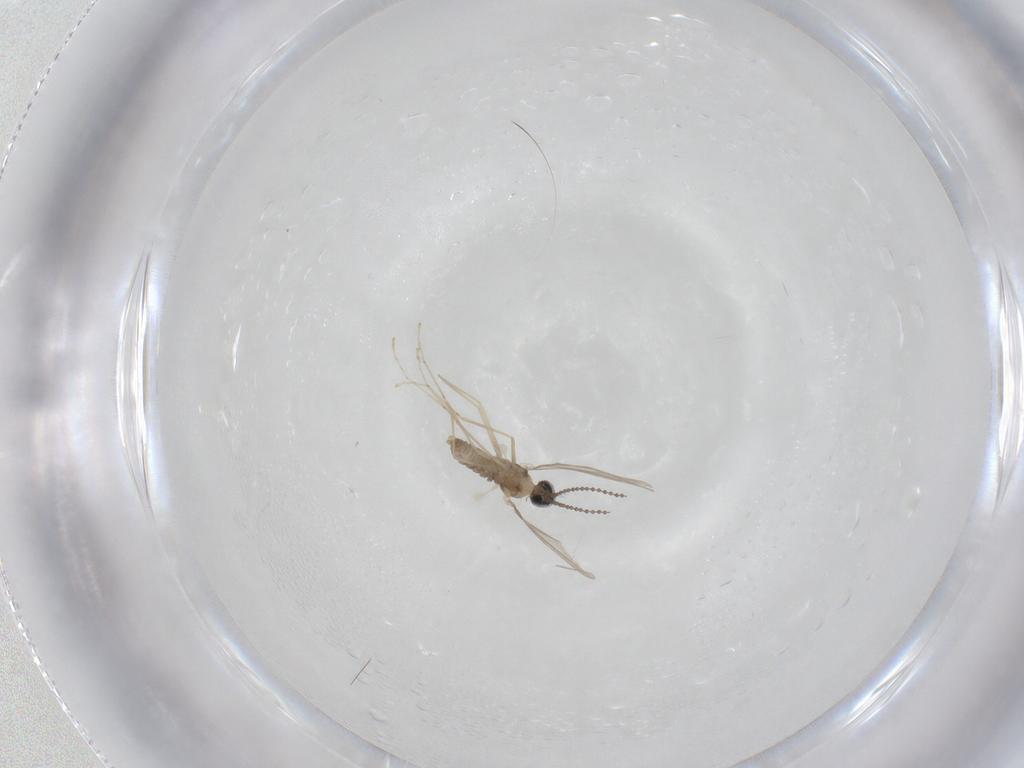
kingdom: Animalia
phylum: Arthropoda
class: Insecta
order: Diptera
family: Cecidomyiidae
